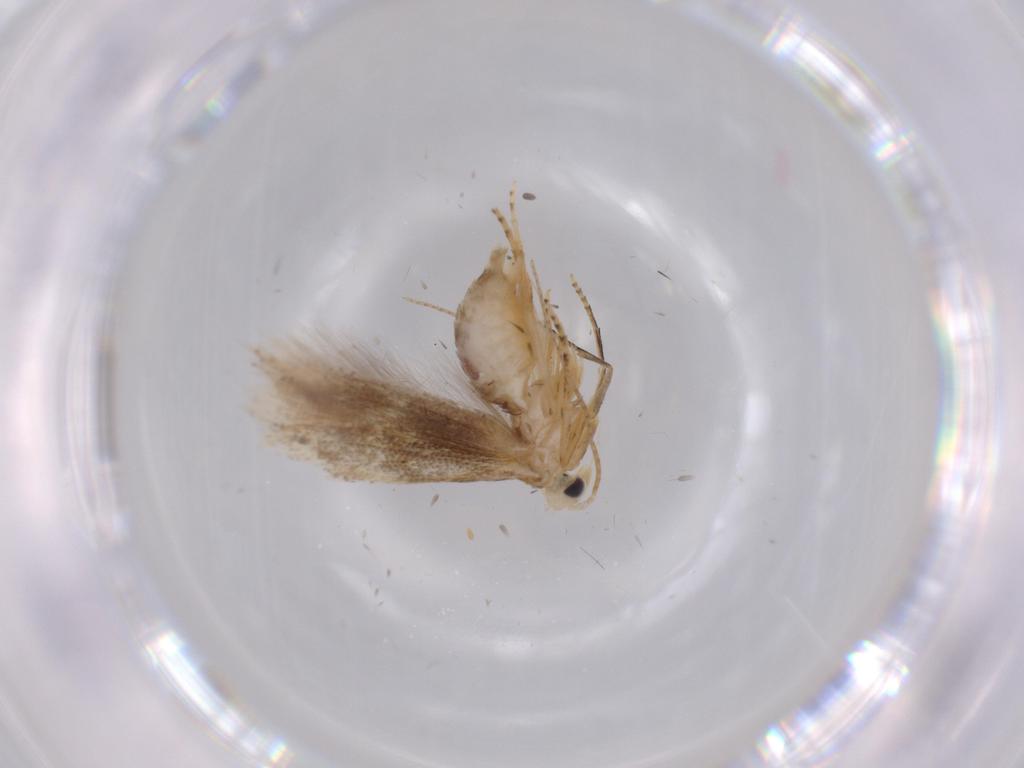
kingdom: Animalia
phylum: Arthropoda
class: Insecta
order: Lepidoptera
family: Bucculatricidae
